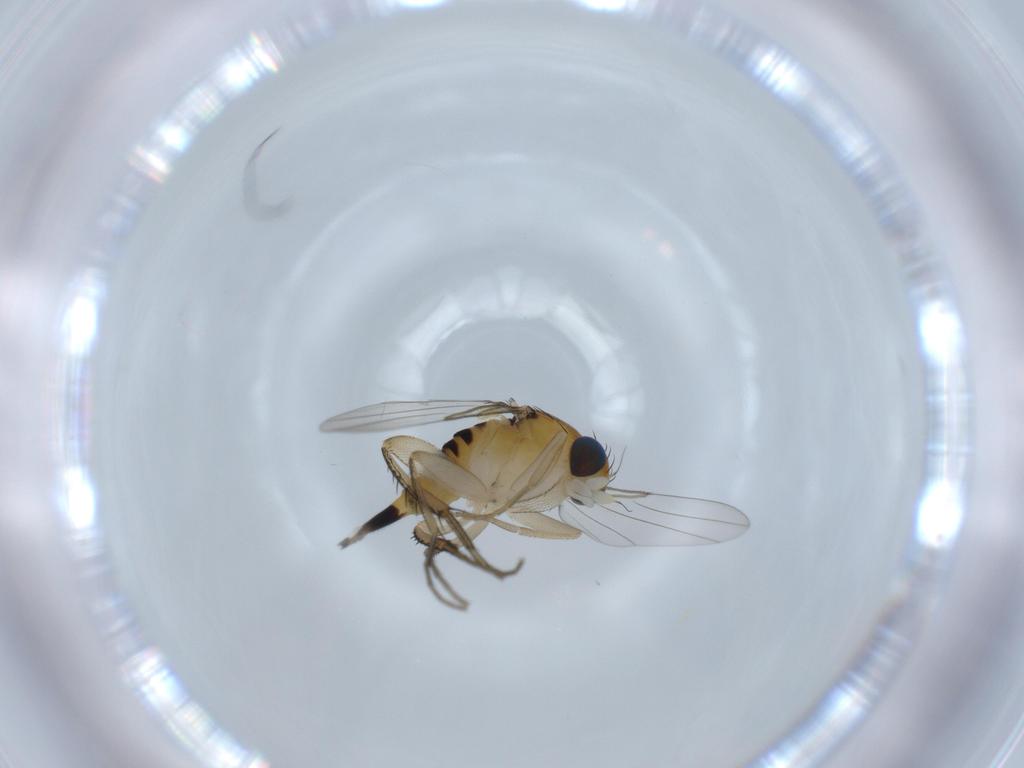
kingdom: Animalia
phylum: Arthropoda
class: Insecta
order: Diptera
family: Phoridae
